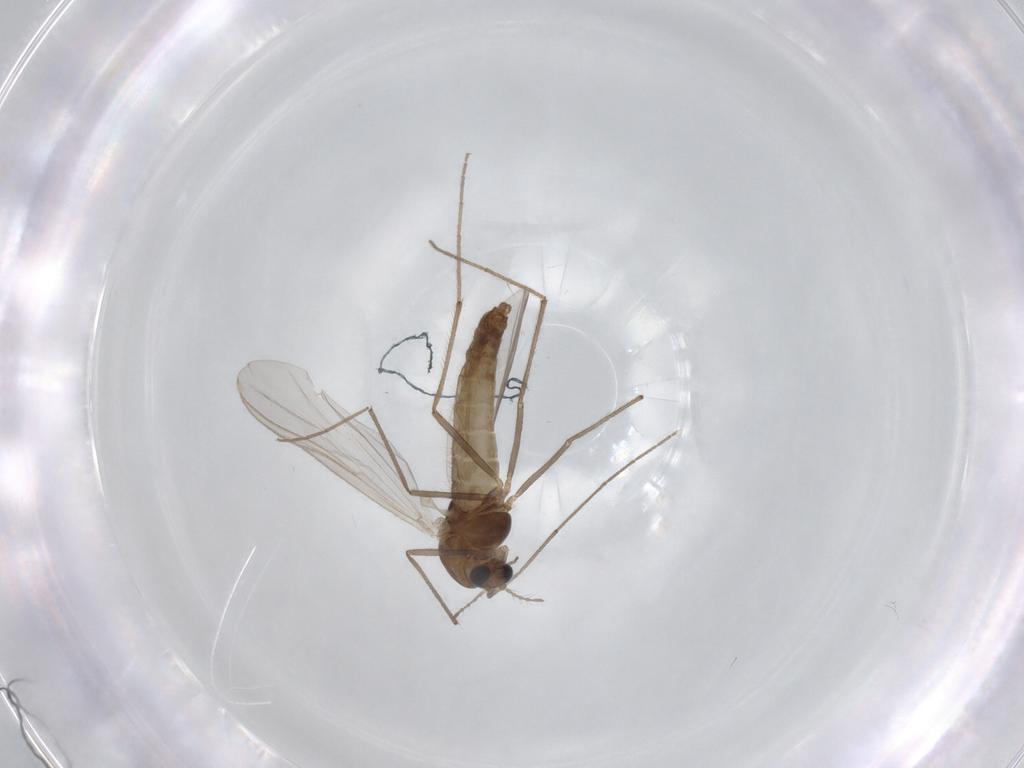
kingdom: Animalia
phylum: Arthropoda
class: Insecta
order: Diptera
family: Chironomidae
